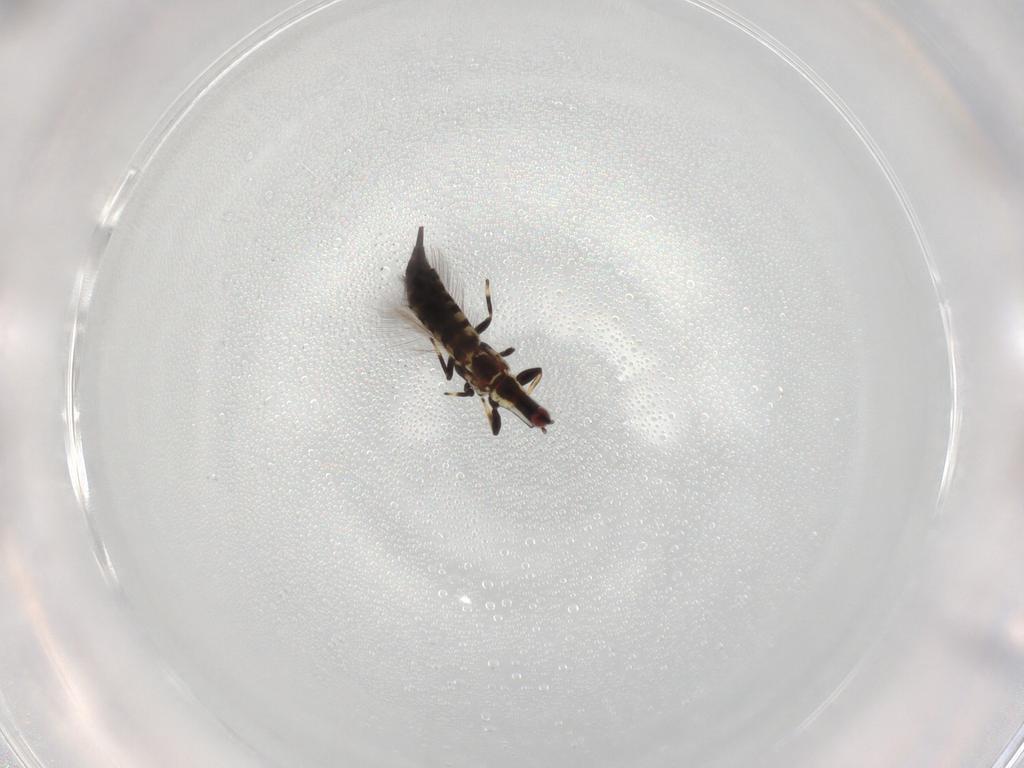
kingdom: Animalia
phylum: Arthropoda
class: Insecta
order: Thysanoptera
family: Phlaeothripidae
